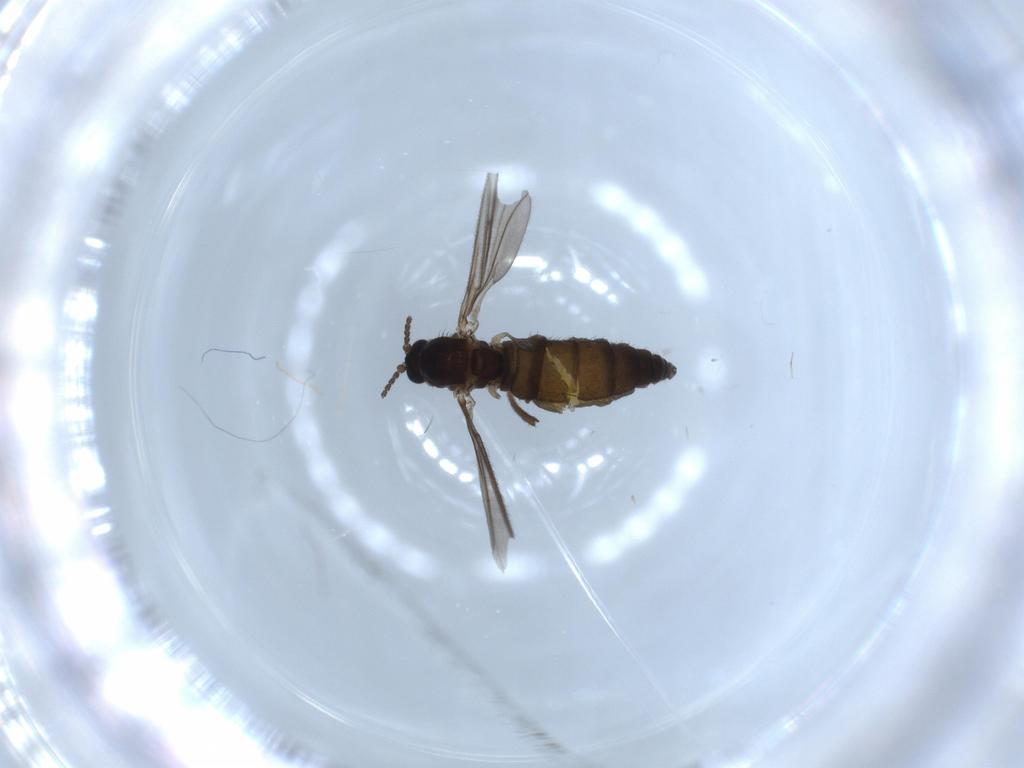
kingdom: Animalia
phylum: Arthropoda
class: Insecta
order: Diptera
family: Sciaridae
